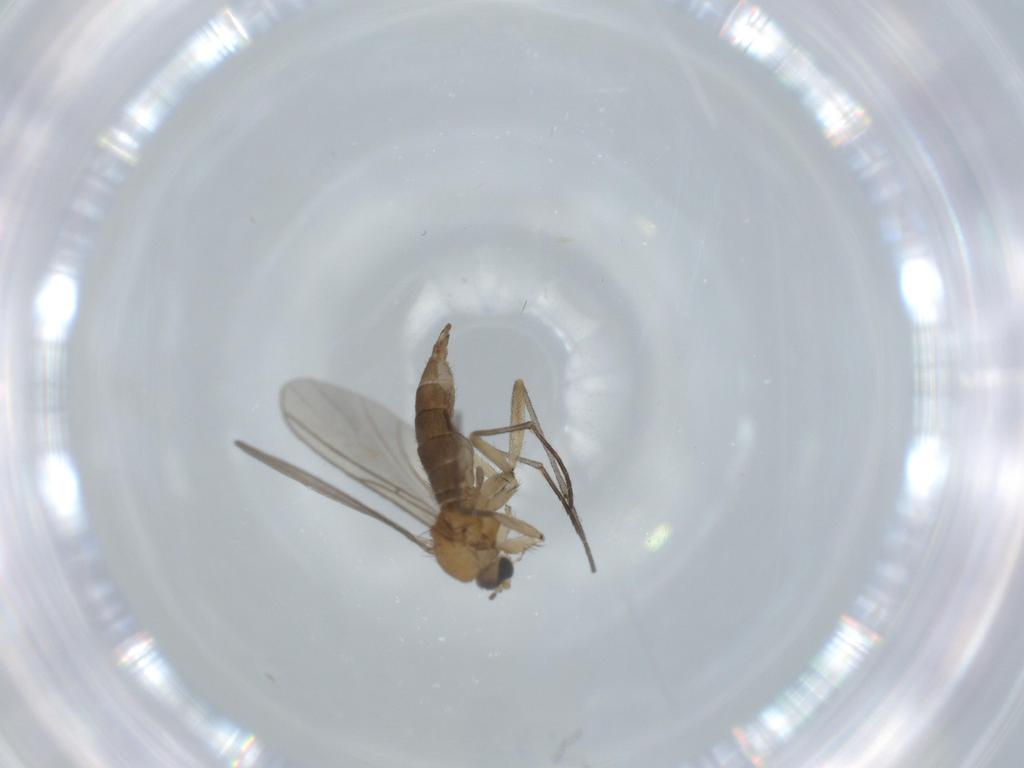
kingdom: Animalia
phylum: Arthropoda
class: Insecta
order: Diptera
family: Sciaridae
